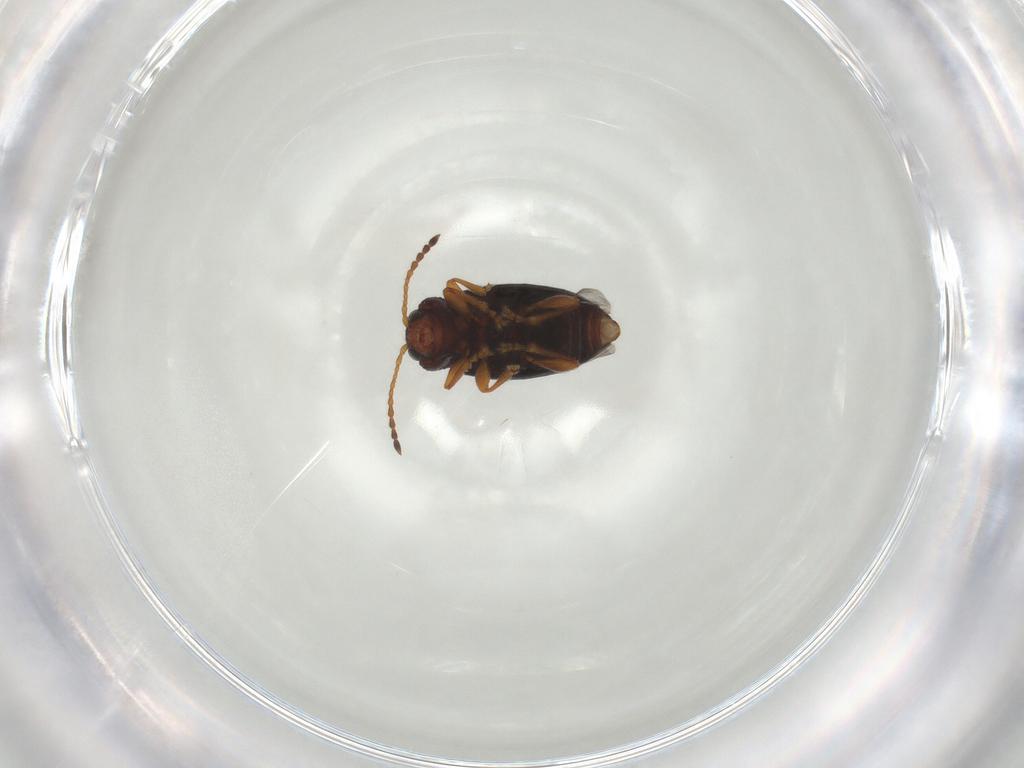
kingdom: Animalia
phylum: Arthropoda
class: Insecta
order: Coleoptera
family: Chrysomelidae
